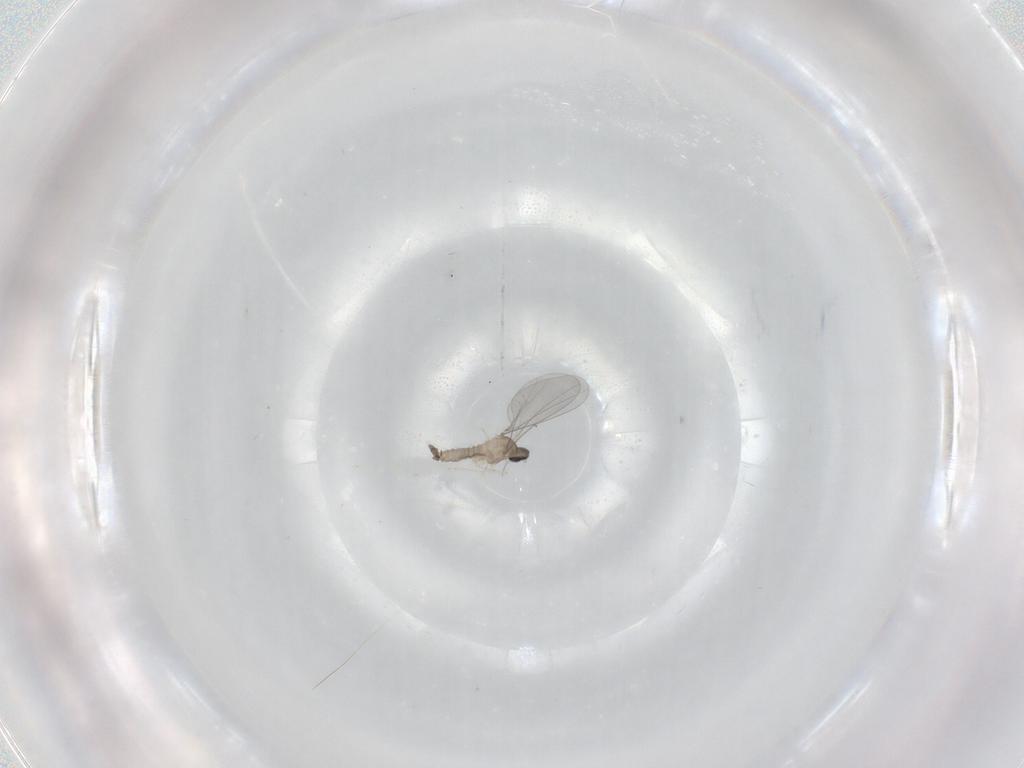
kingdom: Animalia
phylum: Arthropoda
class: Insecta
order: Diptera
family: Cecidomyiidae
